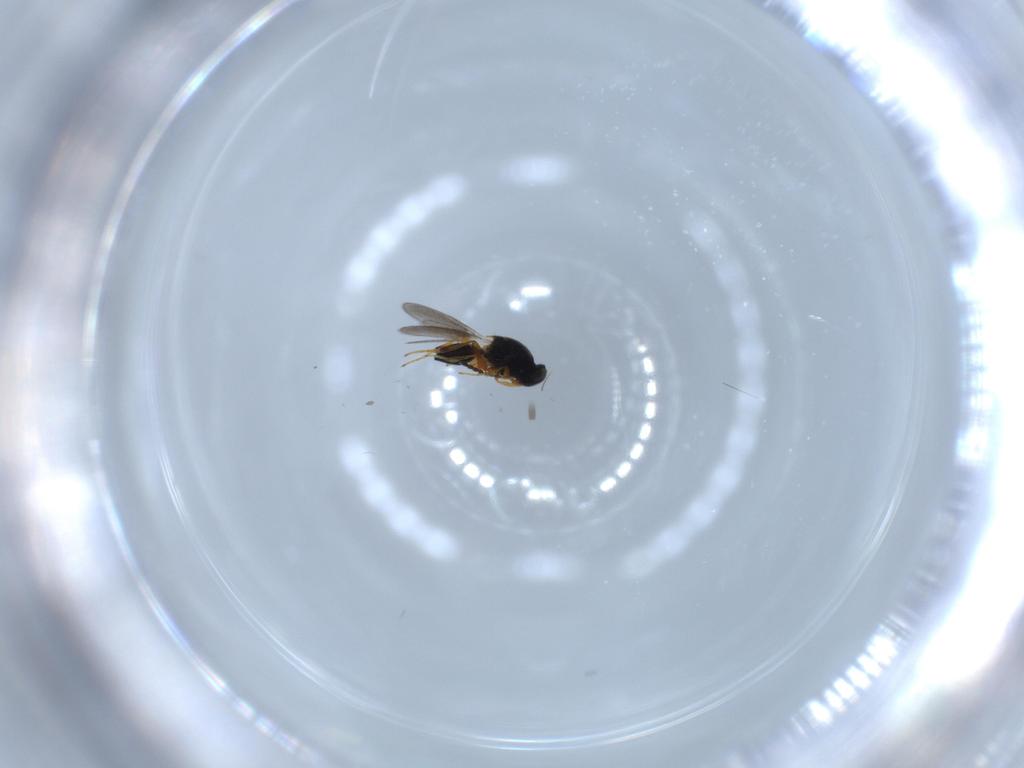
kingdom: Animalia
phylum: Arthropoda
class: Insecta
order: Hymenoptera
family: Platygastridae
